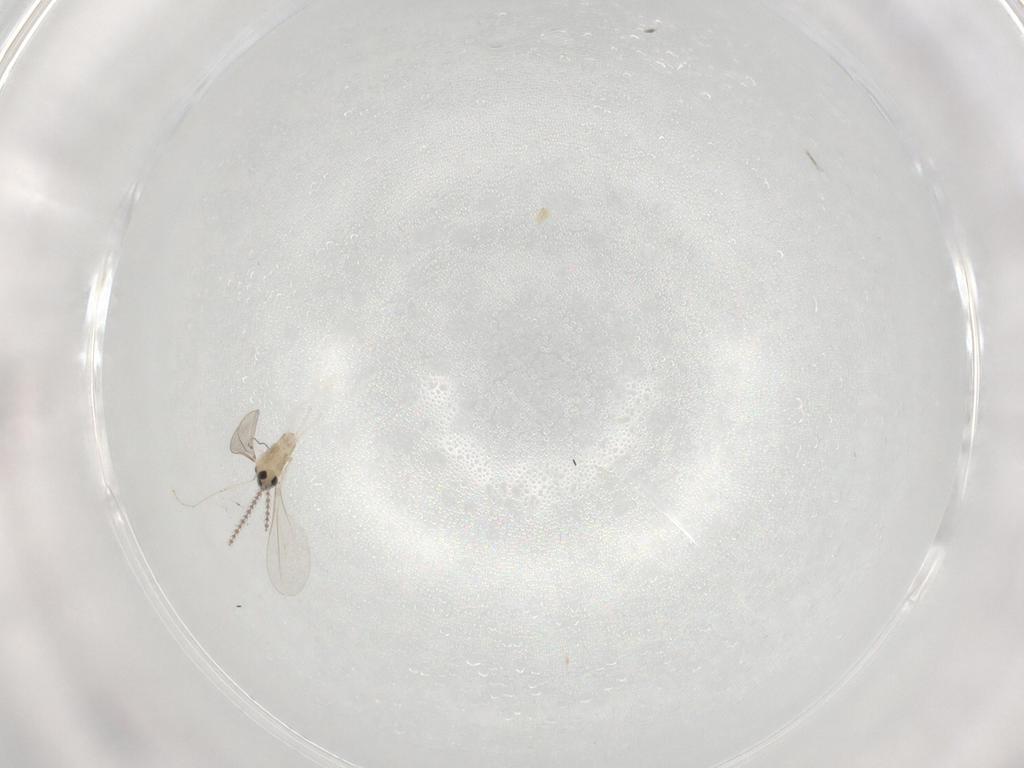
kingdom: Animalia
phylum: Arthropoda
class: Insecta
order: Diptera
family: Cecidomyiidae
